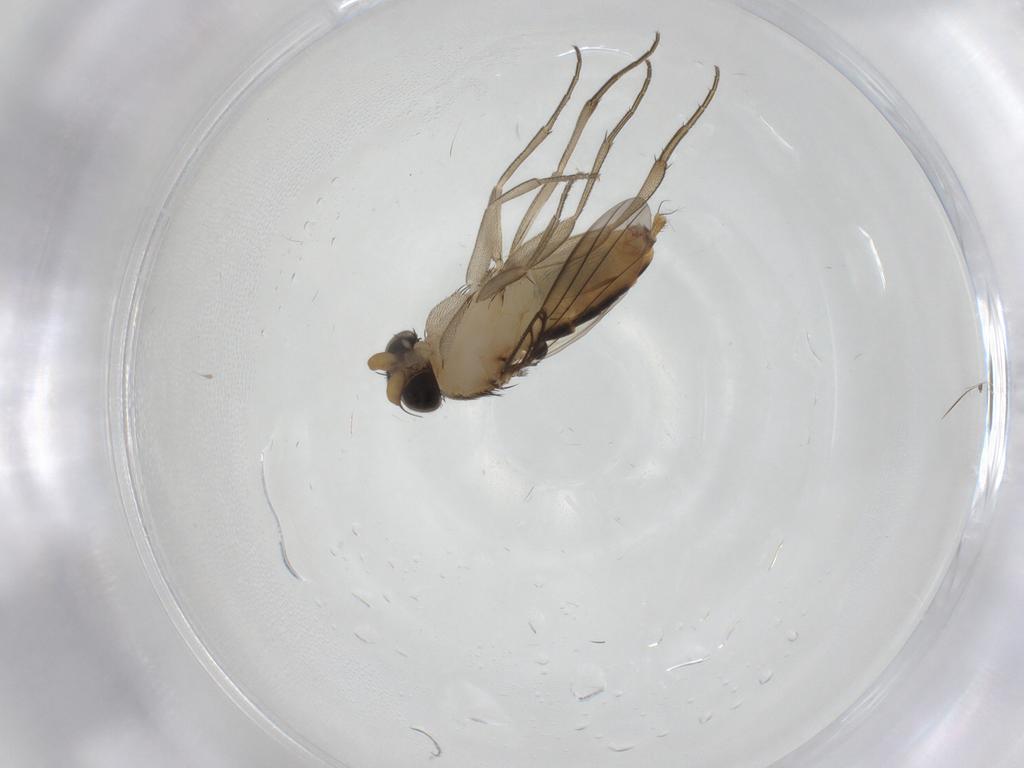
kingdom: Animalia
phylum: Arthropoda
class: Insecta
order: Diptera
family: Phoridae
